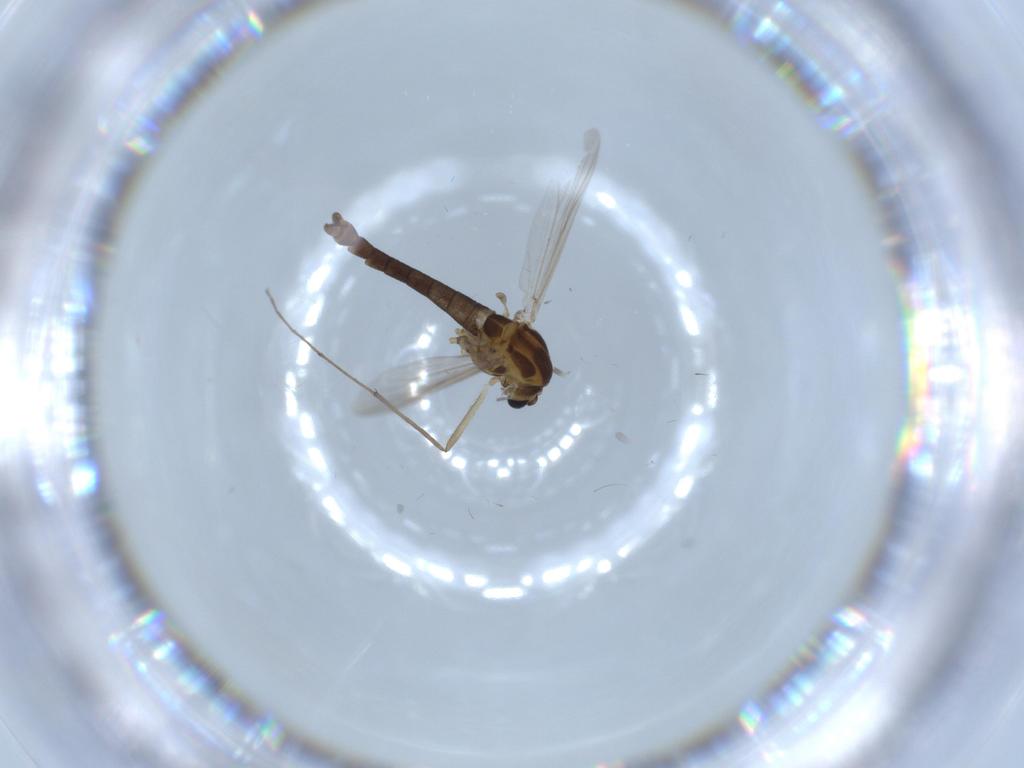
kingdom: Animalia
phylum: Arthropoda
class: Insecta
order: Diptera
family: Chironomidae
